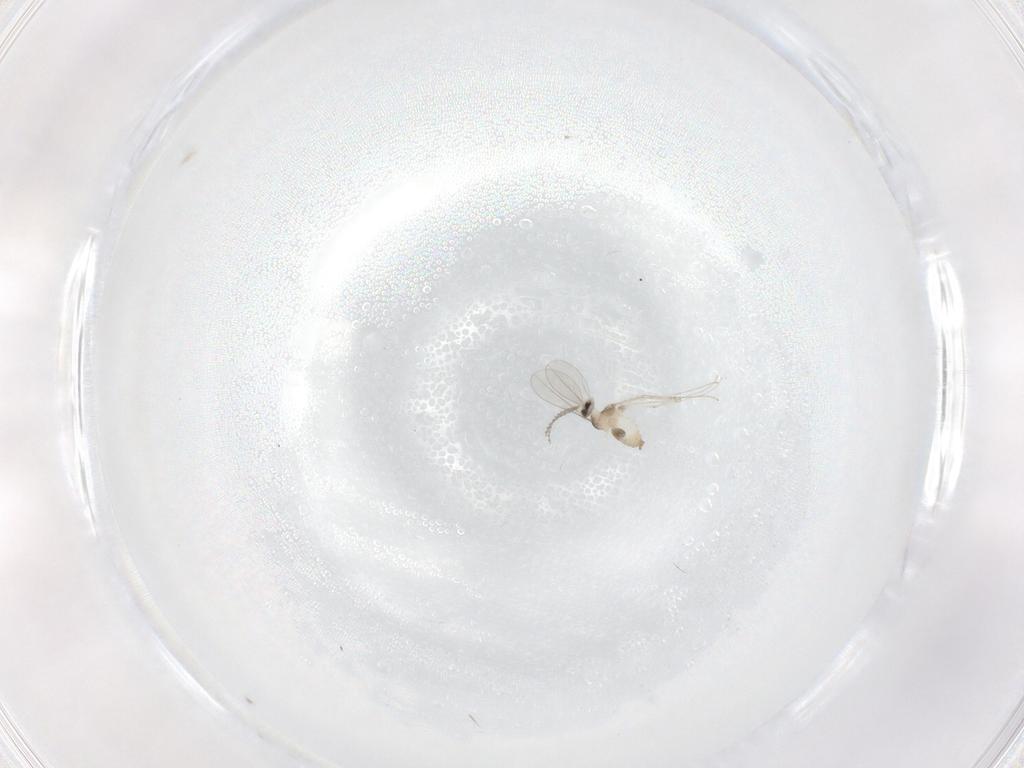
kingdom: Animalia
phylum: Arthropoda
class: Insecta
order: Diptera
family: Cecidomyiidae
